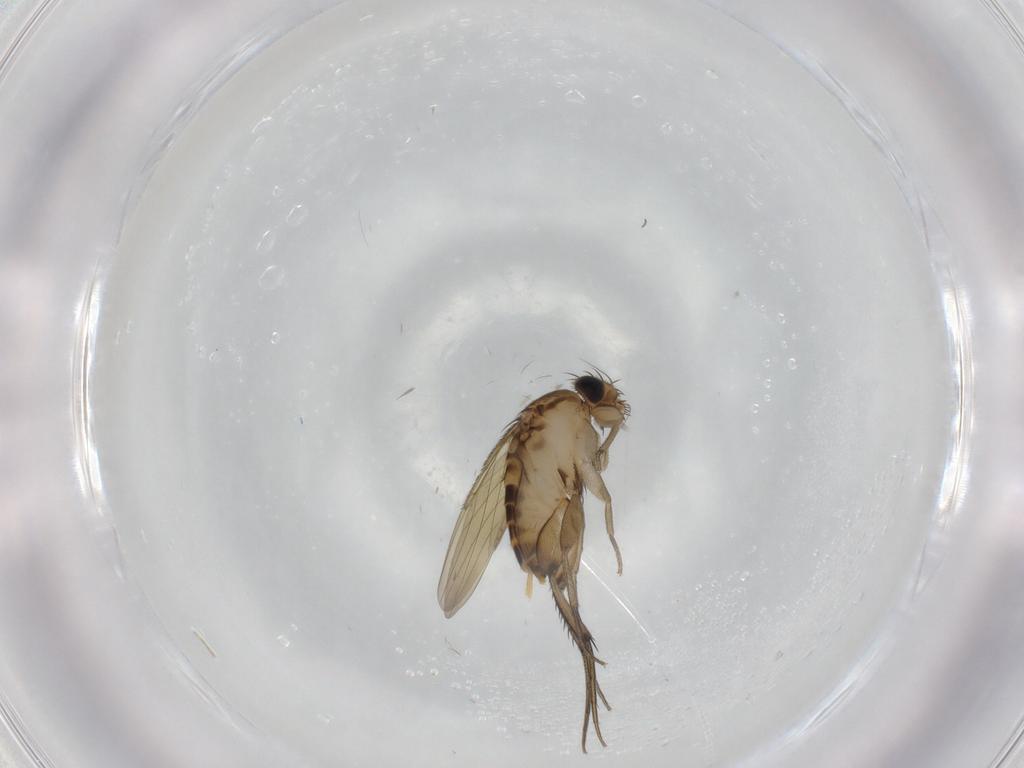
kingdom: Animalia
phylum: Arthropoda
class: Insecta
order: Diptera
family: Phoridae
